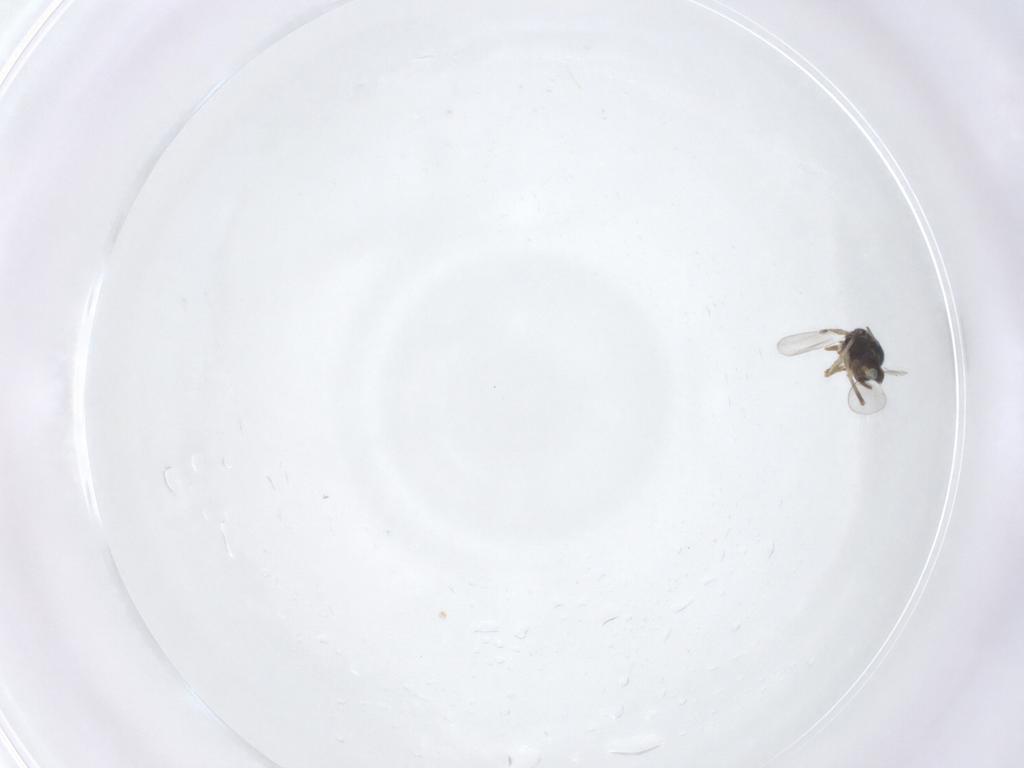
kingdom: Animalia
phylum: Arthropoda
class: Insecta
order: Diptera
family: Cecidomyiidae
